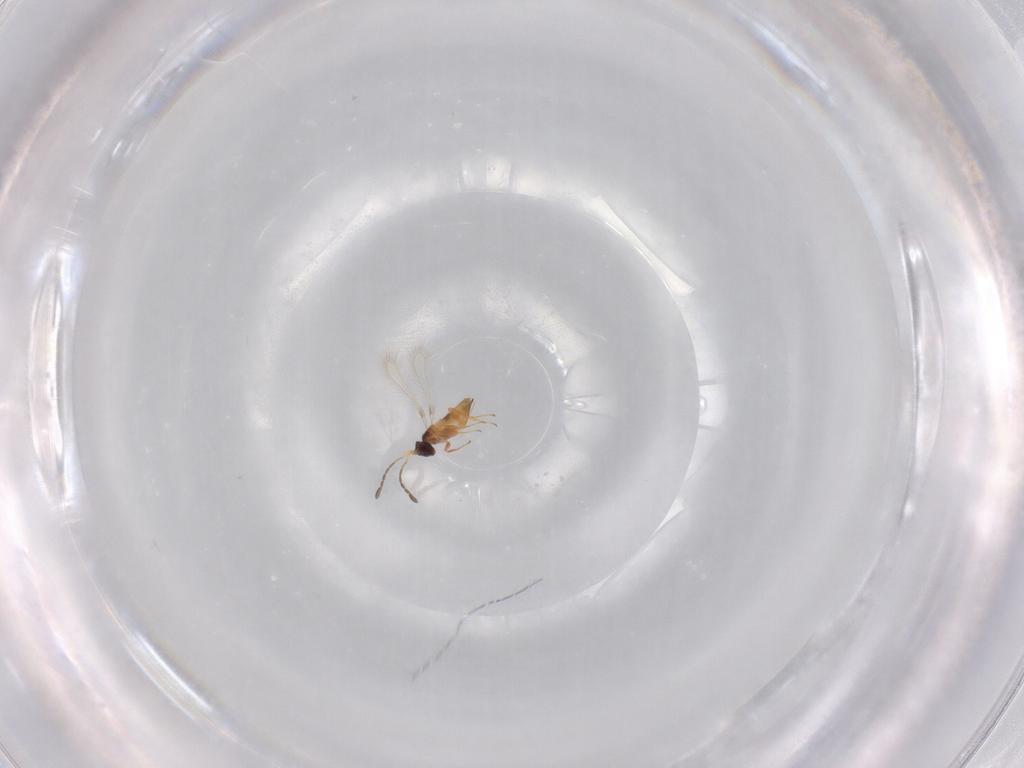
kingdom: Animalia
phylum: Arthropoda
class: Insecta
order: Hymenoptera
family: Mymaridae
